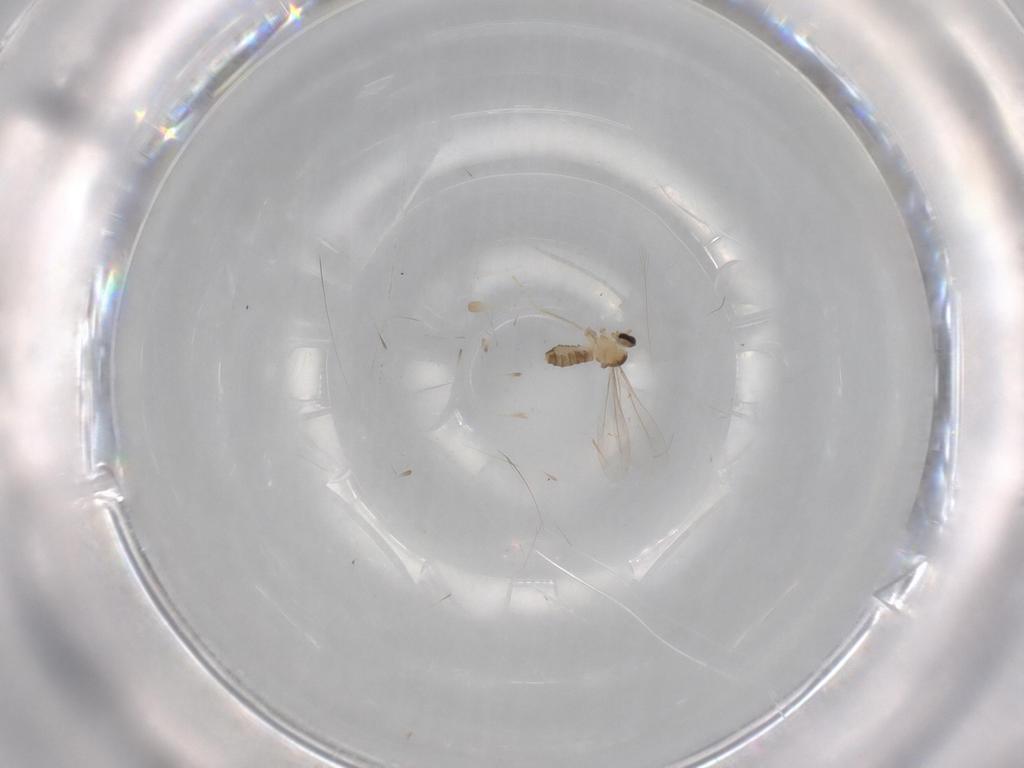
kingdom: Animalia
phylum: Arthropoda
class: Insecta
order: Diptera
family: Cecidomyiidae
